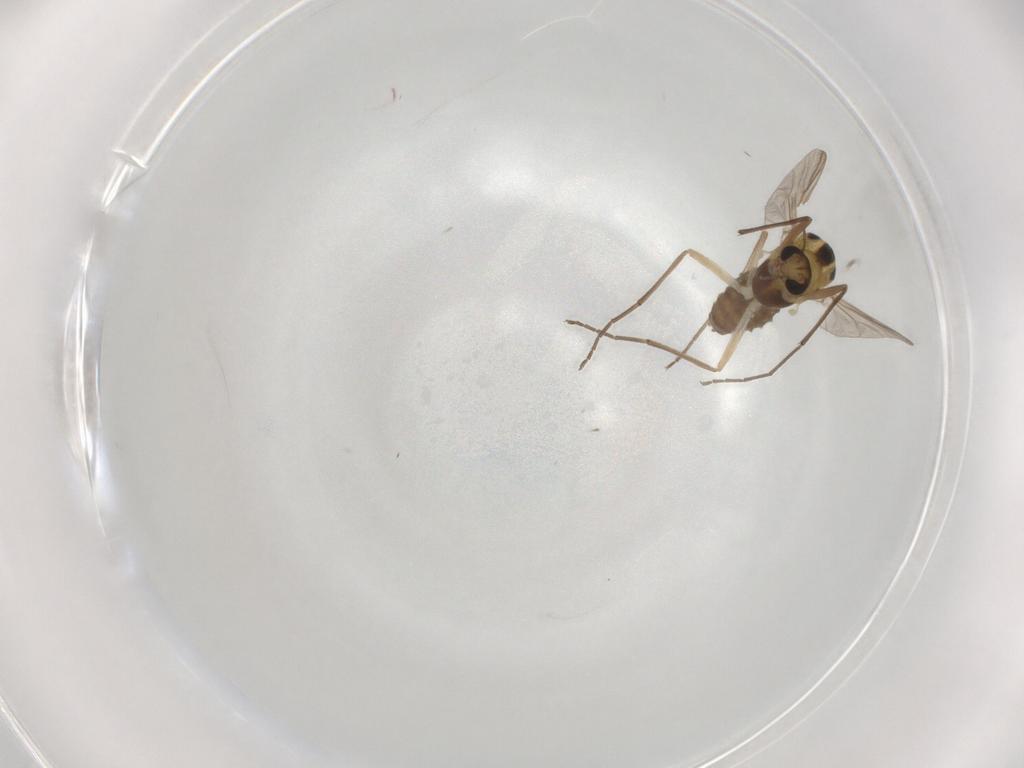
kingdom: Animalia
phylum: Arthropoda
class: Insecta
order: Diptera
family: Chironomidae
